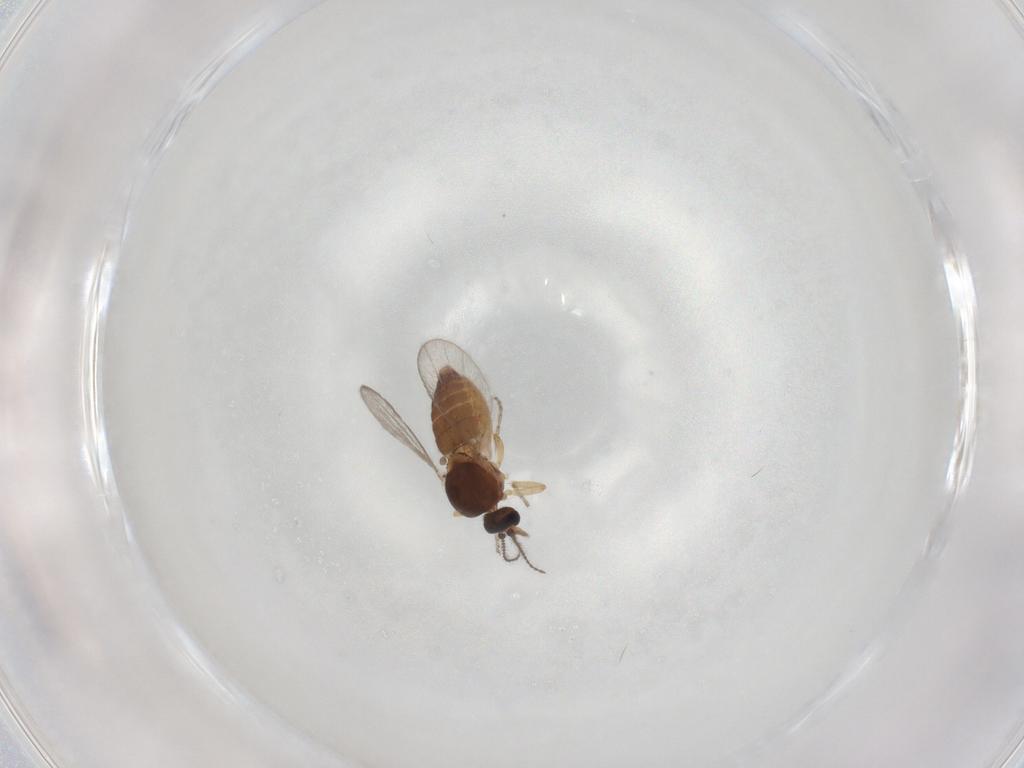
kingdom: Animalia
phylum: Arthropoda
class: Insecta
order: Diptera
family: Ceratopogonidae
